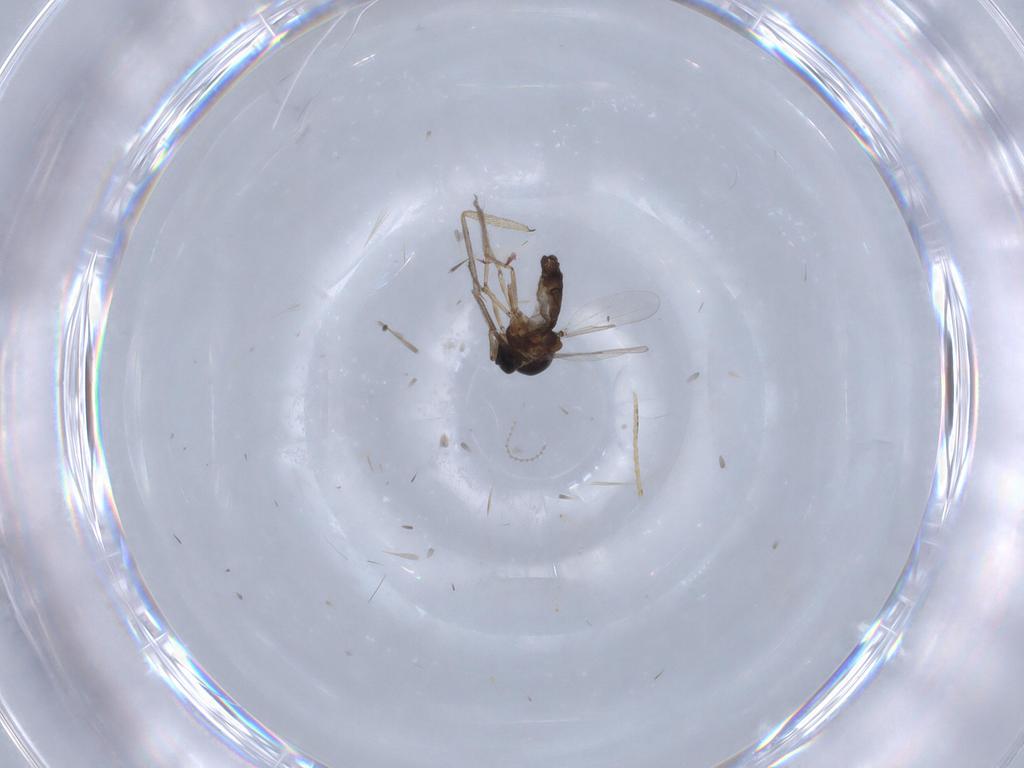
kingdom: Animalia
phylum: Arthropoda
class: Insecta
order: Diptera
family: Ceratopogonidae
